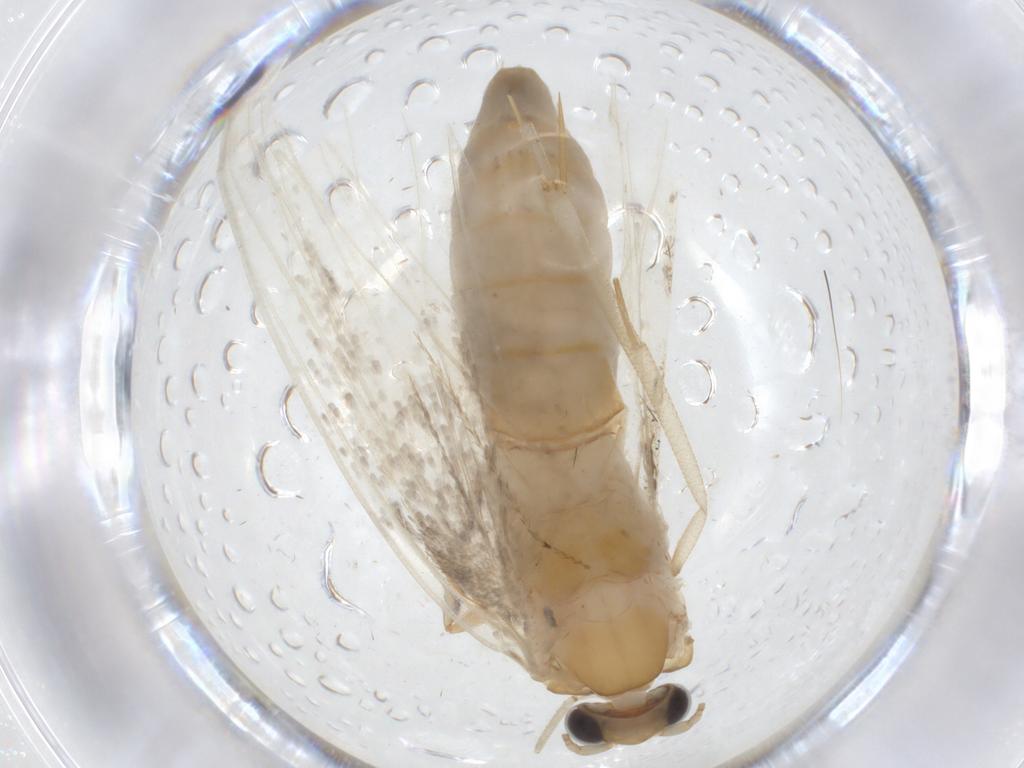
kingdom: Animalia
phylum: Arthropoda
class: Insecta
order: Lepidoptera
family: Tineidae
